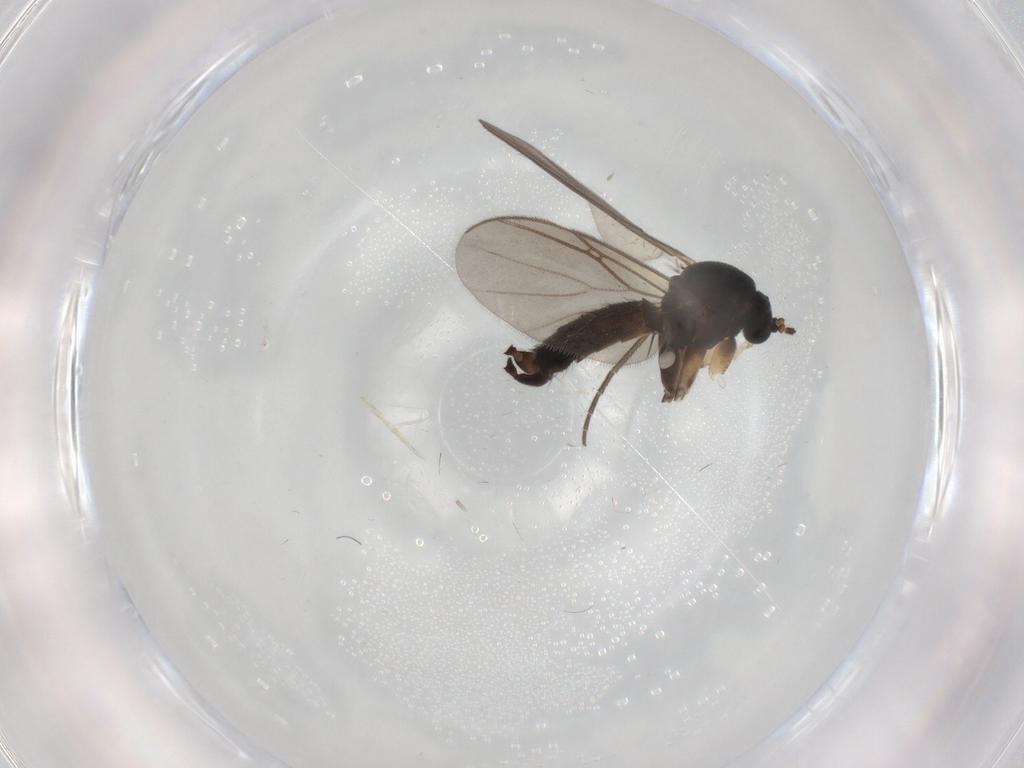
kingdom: Animalia
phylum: Arthropoda
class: Insecta
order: Diptera
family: Mycetophilidae
